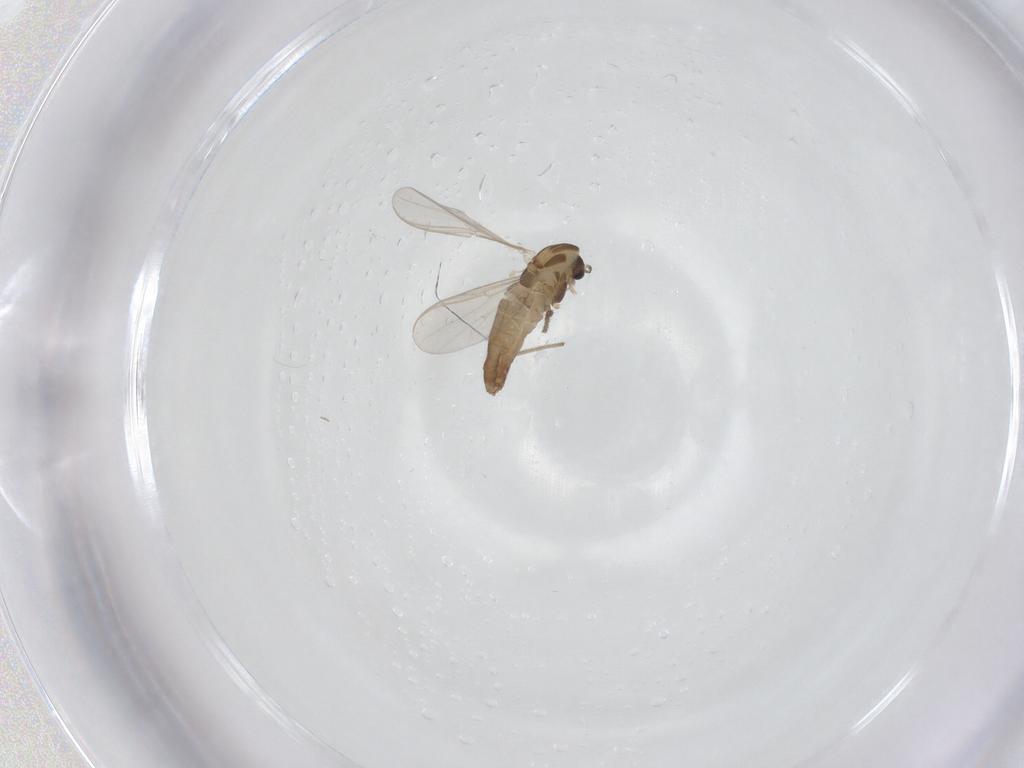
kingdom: Animalia
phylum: Arthropoda
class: Insecta
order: Diptera
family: Chironomidae
